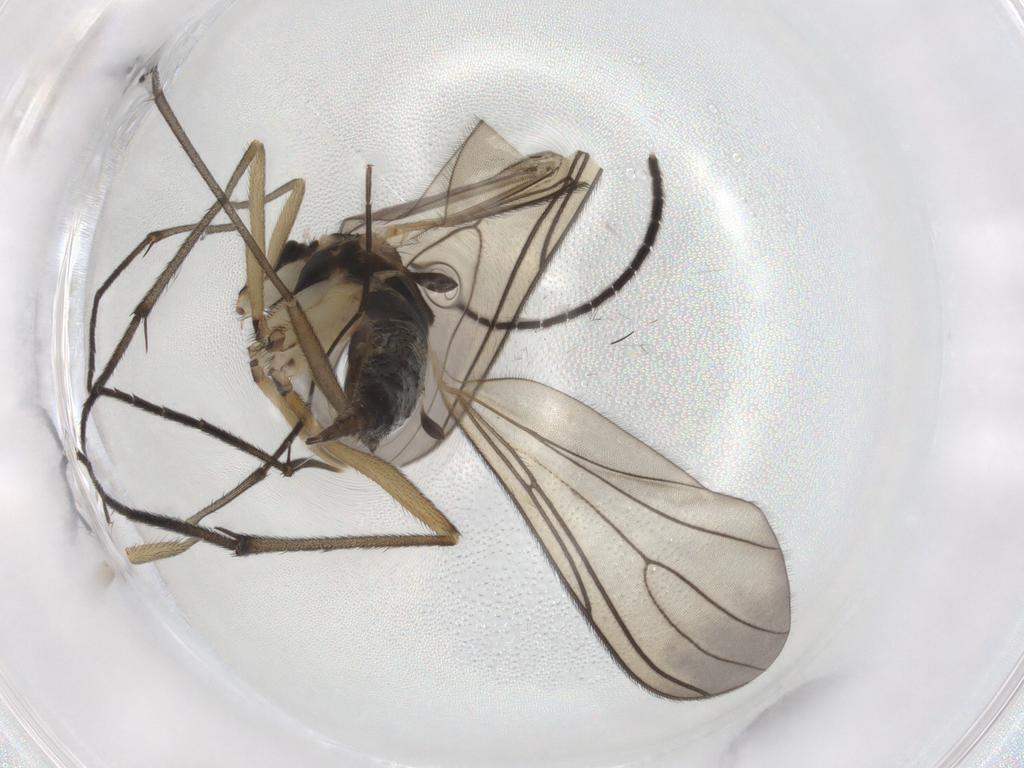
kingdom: Animalia
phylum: Arthropoda
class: Insecta
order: Diptera
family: Sciaridae
